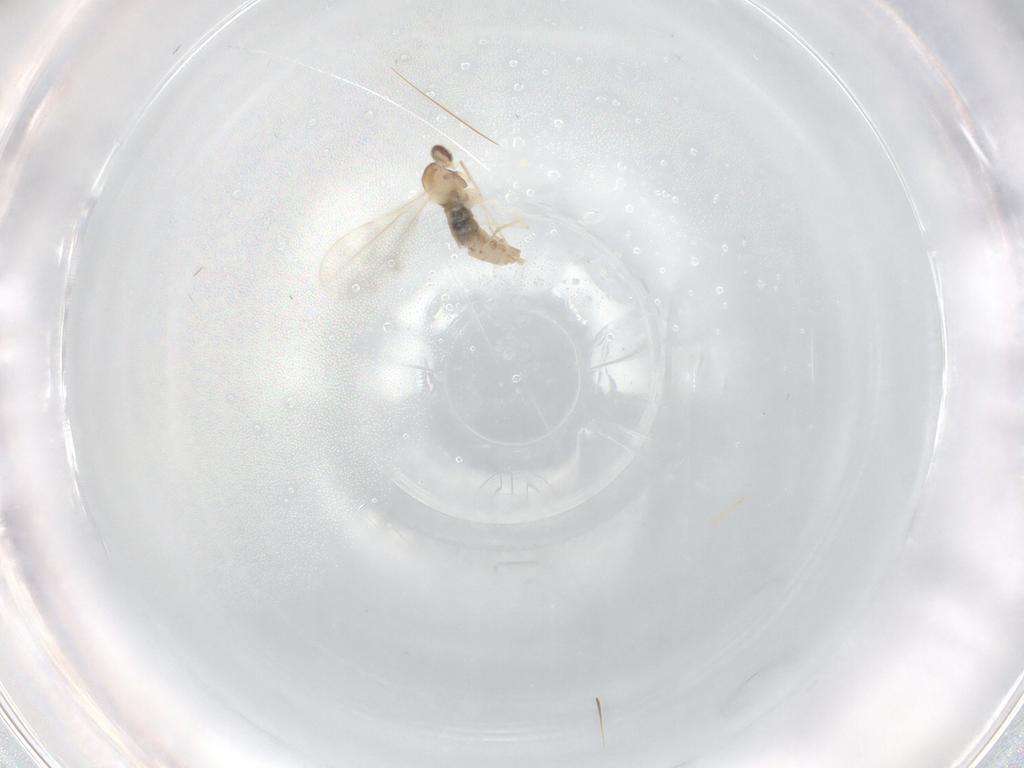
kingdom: Animalia
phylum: Arthropoda
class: Insecta
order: Diptera
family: Cecidomyiidae
